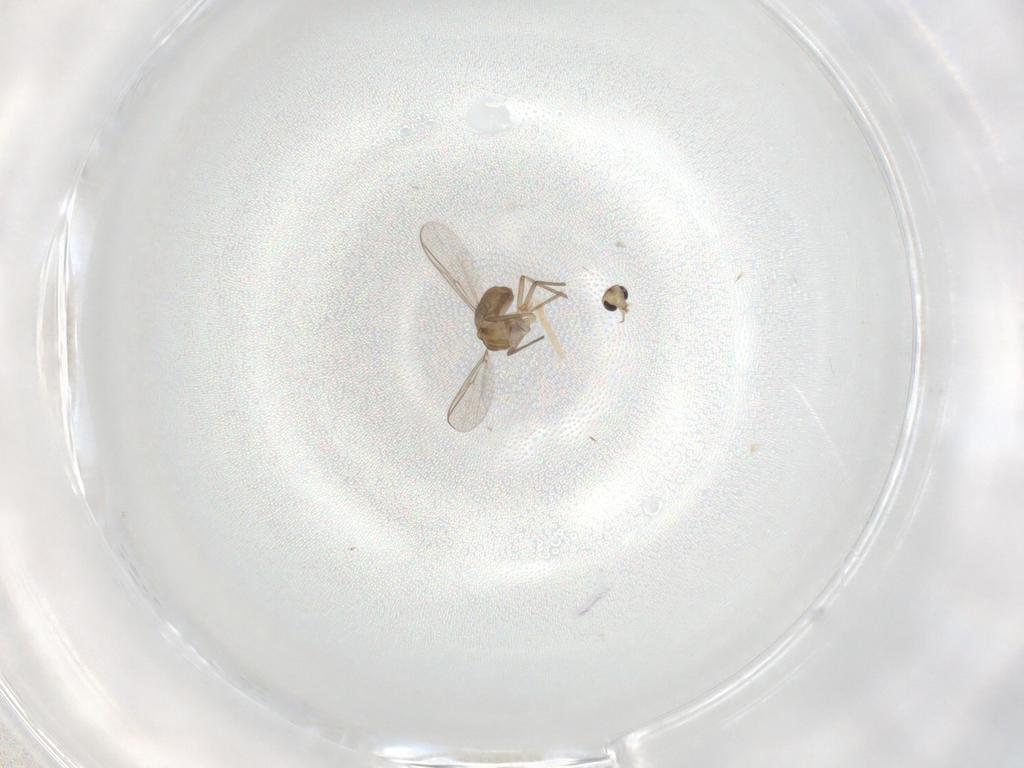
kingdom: Animalia
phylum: Arthropoda
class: Insecta
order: Diptera
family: Chironomidae
